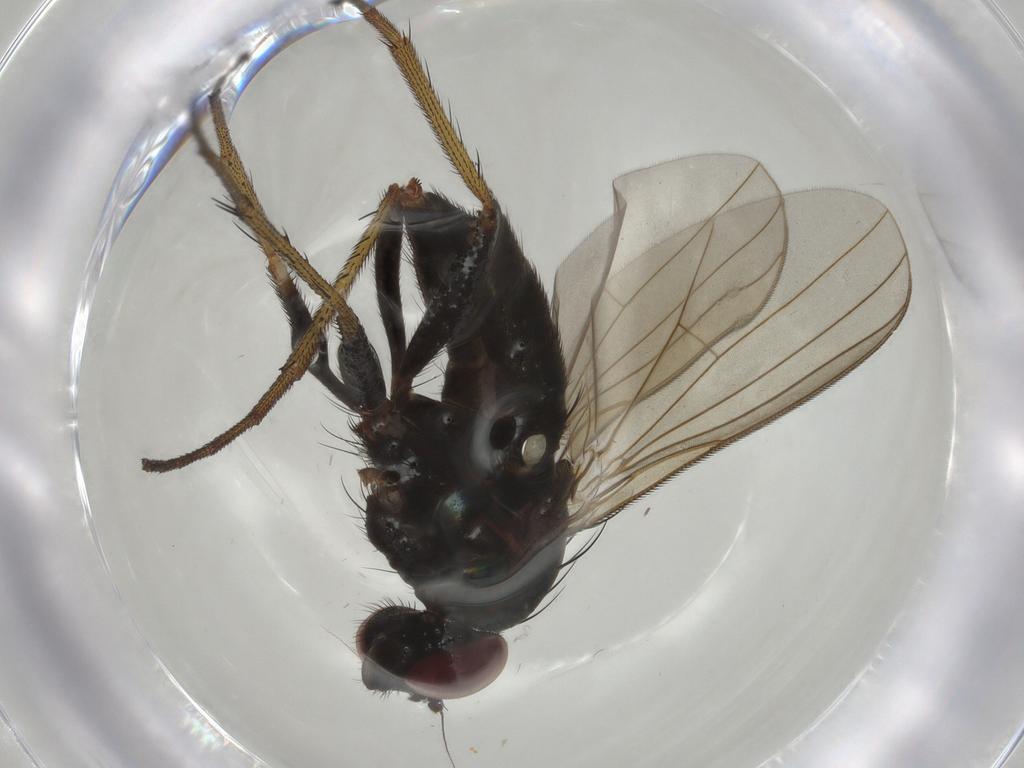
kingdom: Animalia
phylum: Arthropoda
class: Insecta
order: Diptera
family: Dolichopodidae
